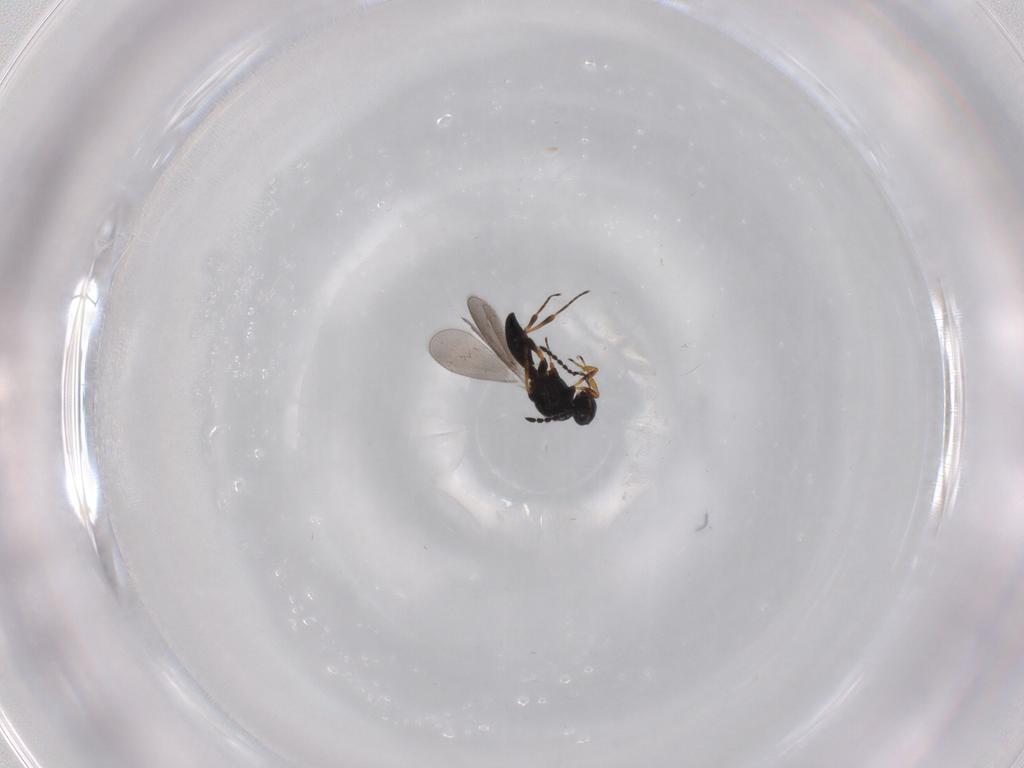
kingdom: Animalia
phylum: Arthropoda
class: Insecta
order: Hymenoptera
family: Platygastridae
